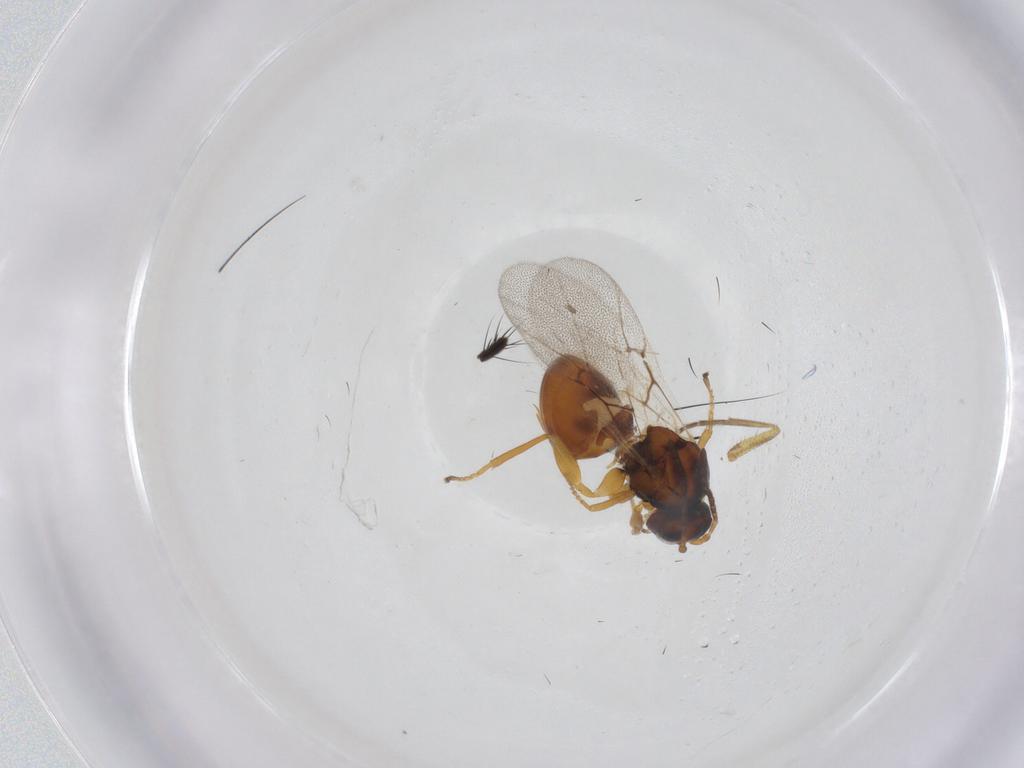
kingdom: Animalia
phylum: Arthropoda
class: Insecta
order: Hymenoptera
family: Cynipidae
